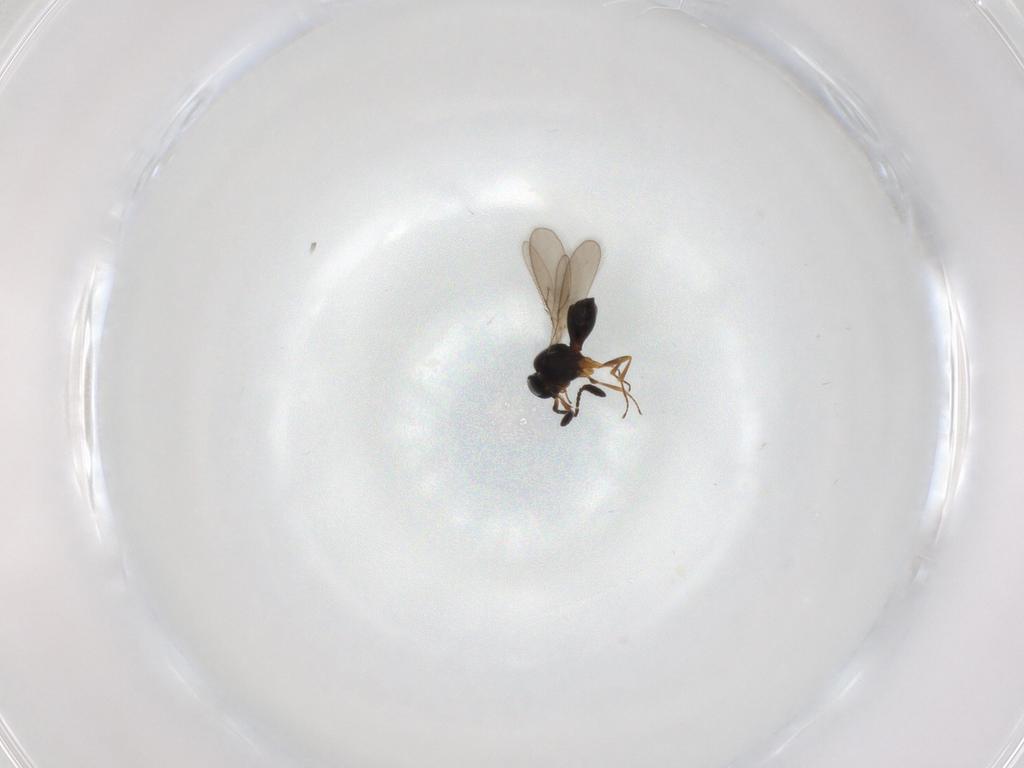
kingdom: Animalia
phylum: Arthropoda
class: Insecta
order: Hymenoptera
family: Scelionidae
